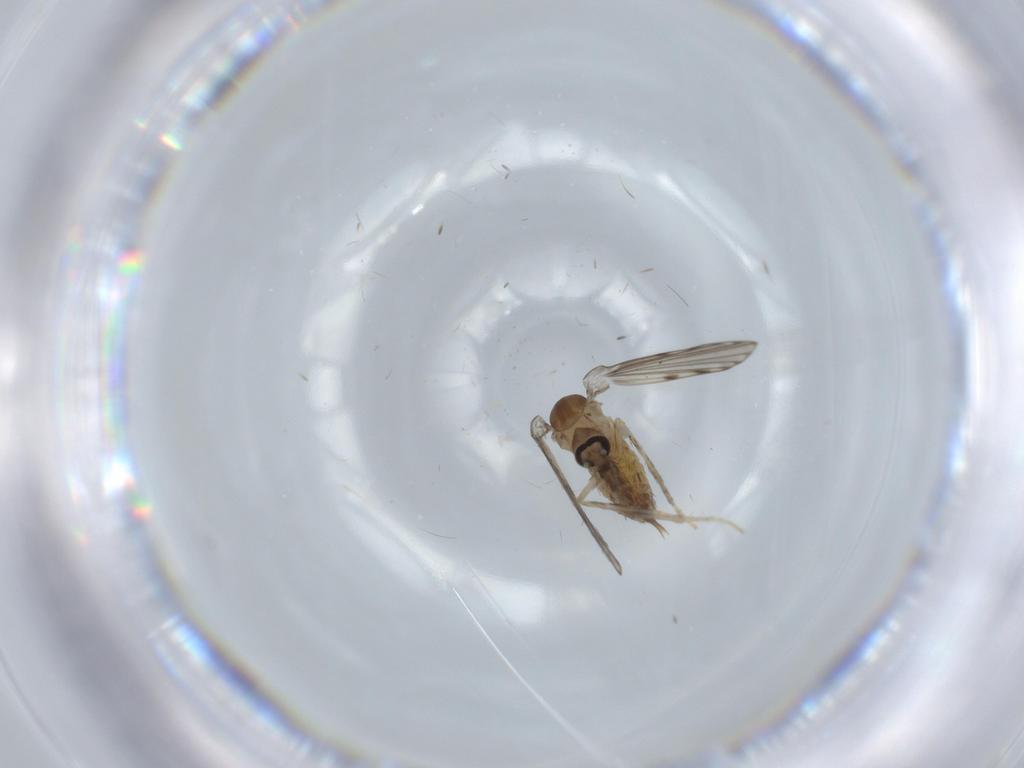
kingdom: Animalia
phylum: Arthropoda
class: Insecta
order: Diptera
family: Psychodidae
